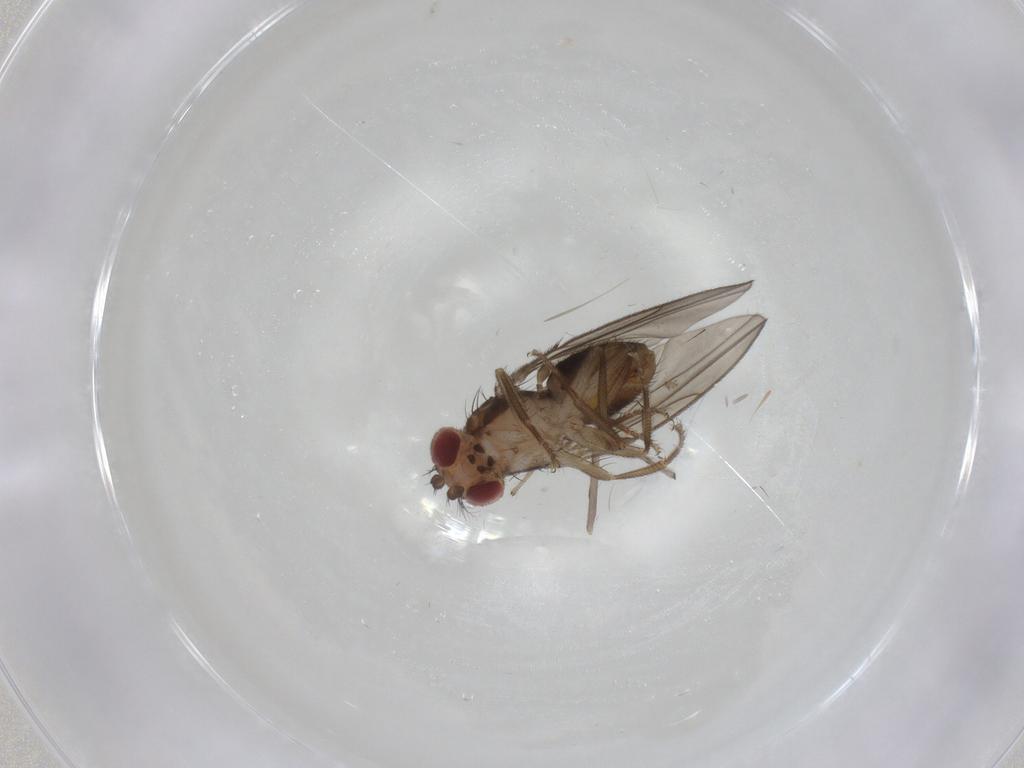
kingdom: Animalia
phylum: Arthropoda
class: Insecta
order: Diptera
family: Drosophilidae
